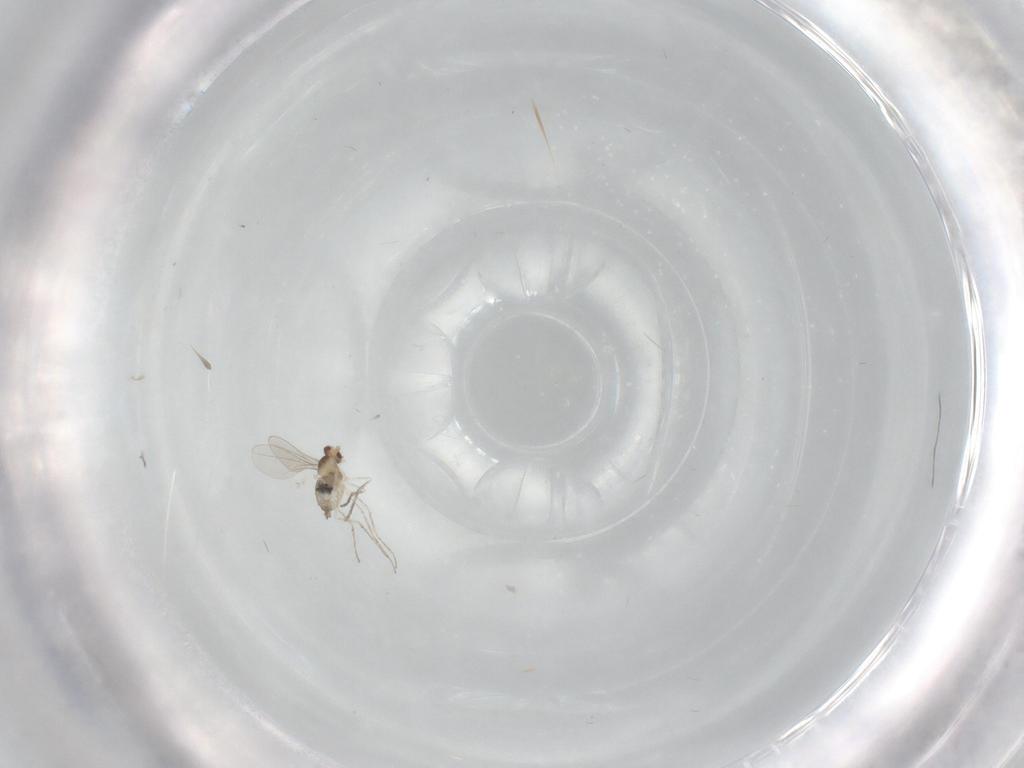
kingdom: Animalia
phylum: Arthropoda
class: Insecta
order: Diptera
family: Cecidomyiidae
